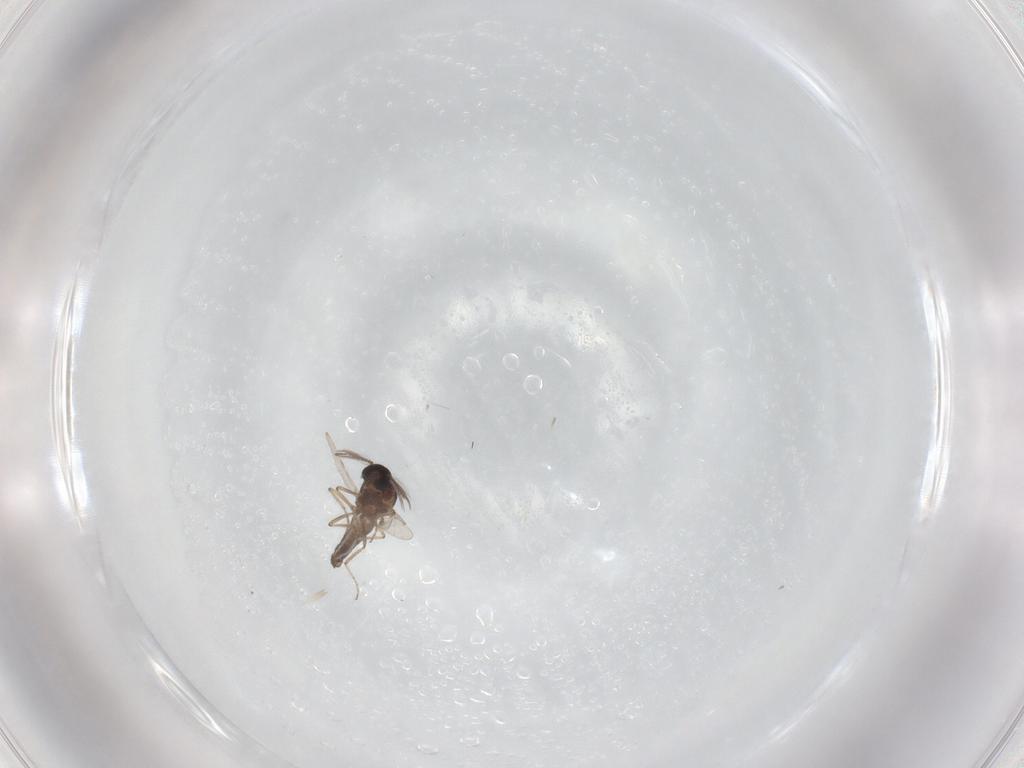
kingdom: Animalia
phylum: Arthropoda
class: Insecta
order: Diptera
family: Ceratopogonidae
